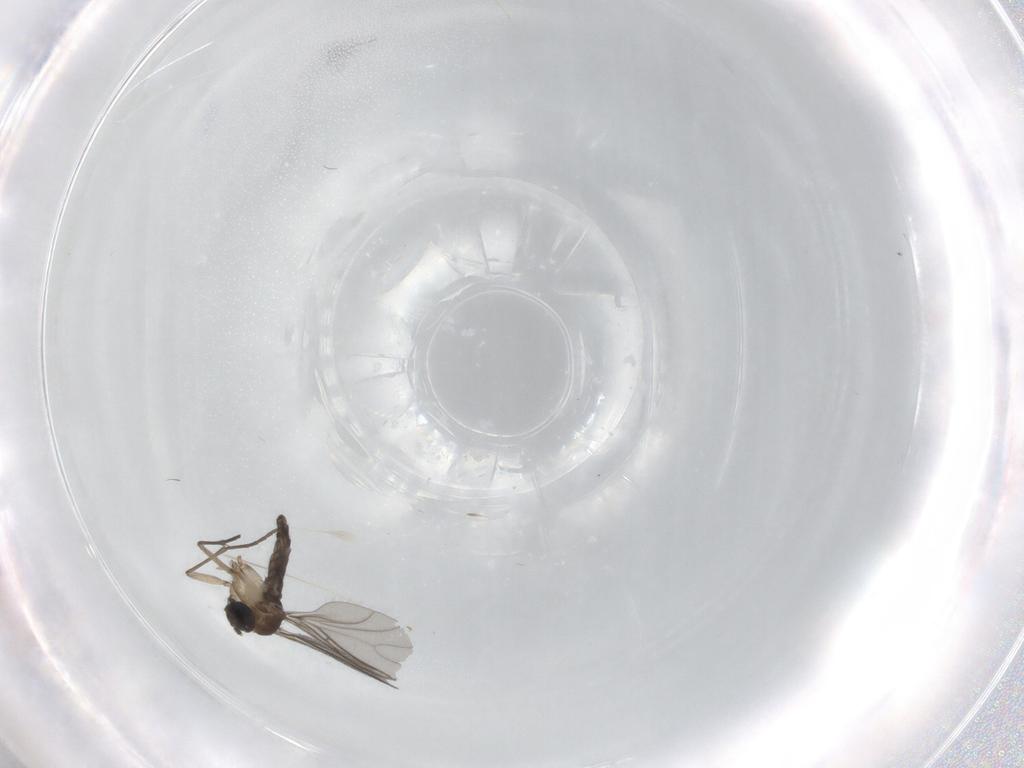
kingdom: Animalia
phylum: Arthropoda
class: Insecta
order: Diptera
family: Sciaridae
